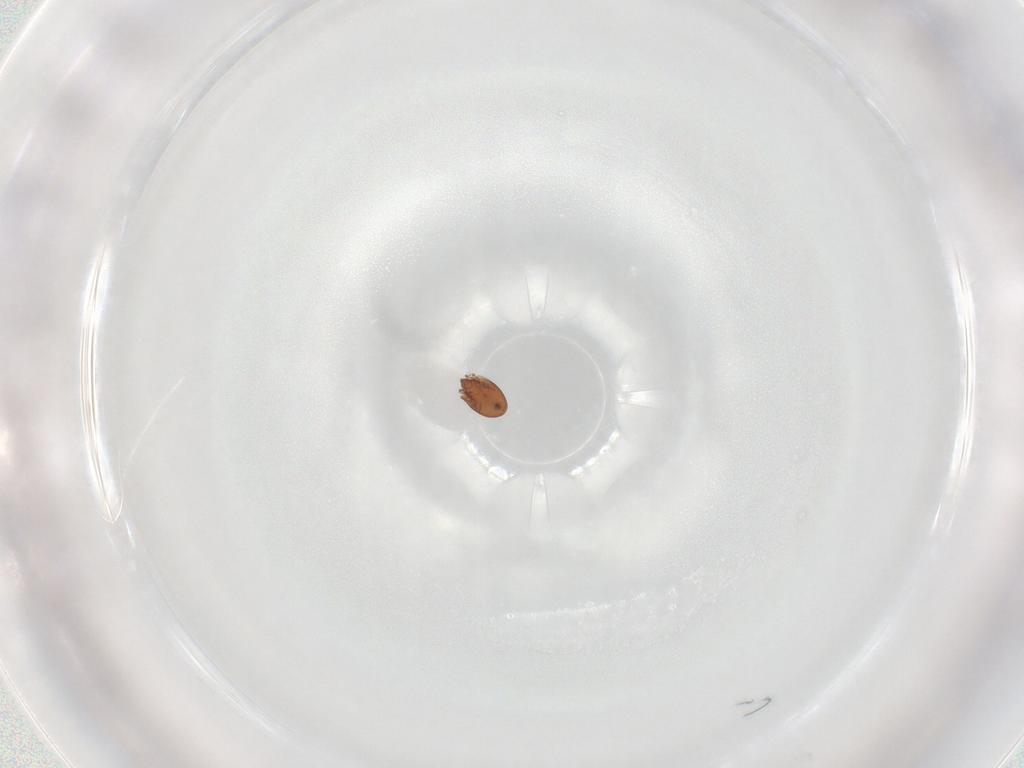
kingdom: Animalia
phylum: Arthropoda
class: Arachnida
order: Sarcoptiformes
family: Scheloribatidae
